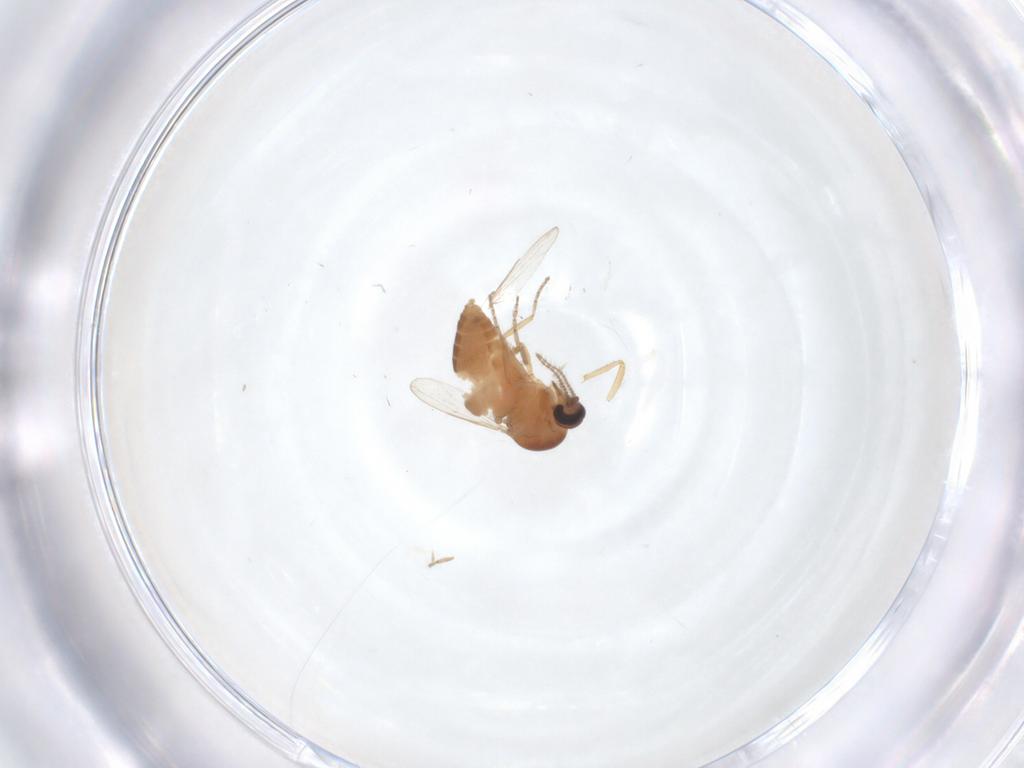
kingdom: Animalia
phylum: Arthropoda
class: Insecta
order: Diptera
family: Ceratopogonidae
